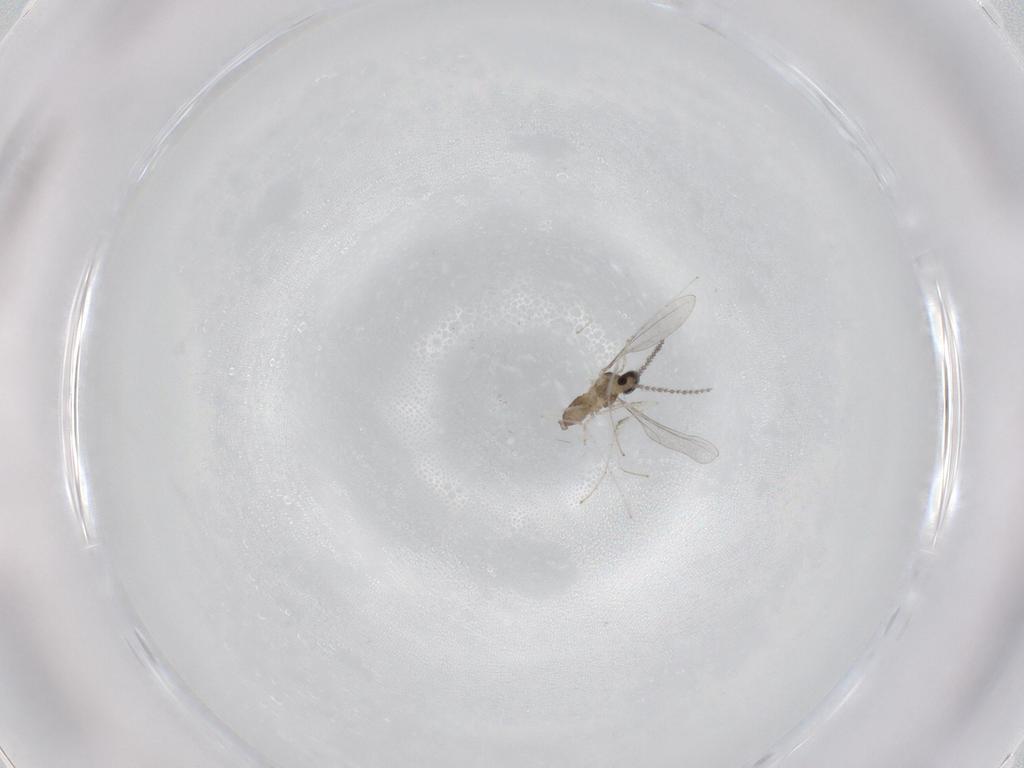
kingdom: Animalia
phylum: Arthropoda
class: Insecta
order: Diptera
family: Cecidomyiidae
